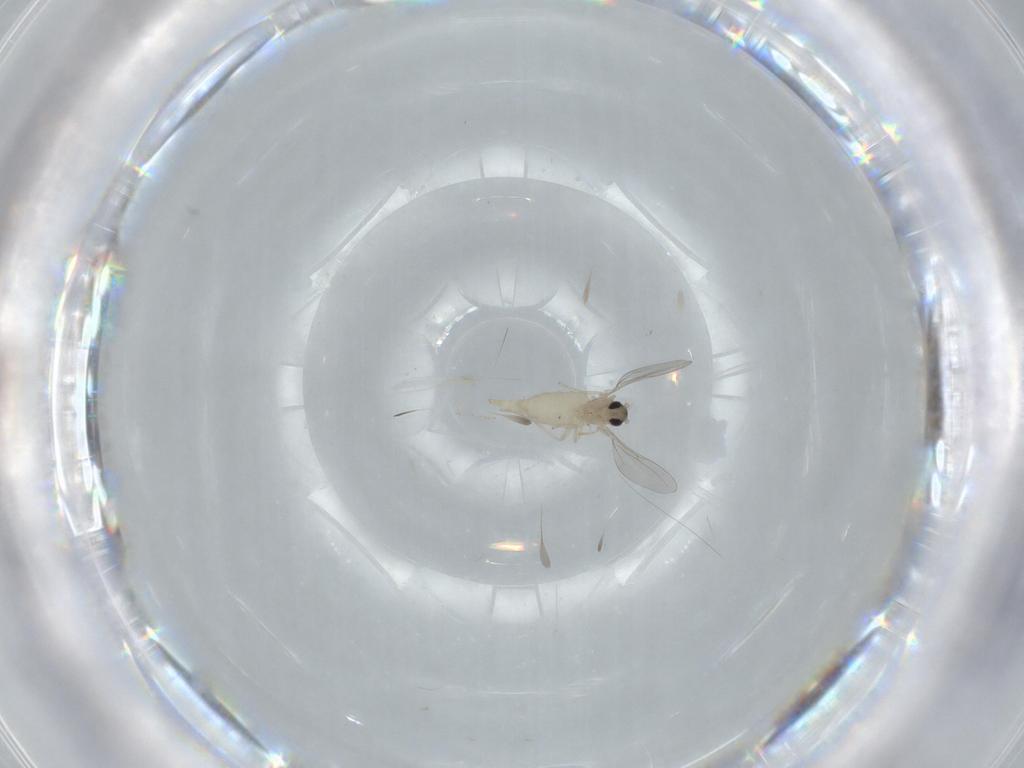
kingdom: Animalia
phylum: Arthropoda
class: Insecta
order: Diptera
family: Cecidomyiidae
